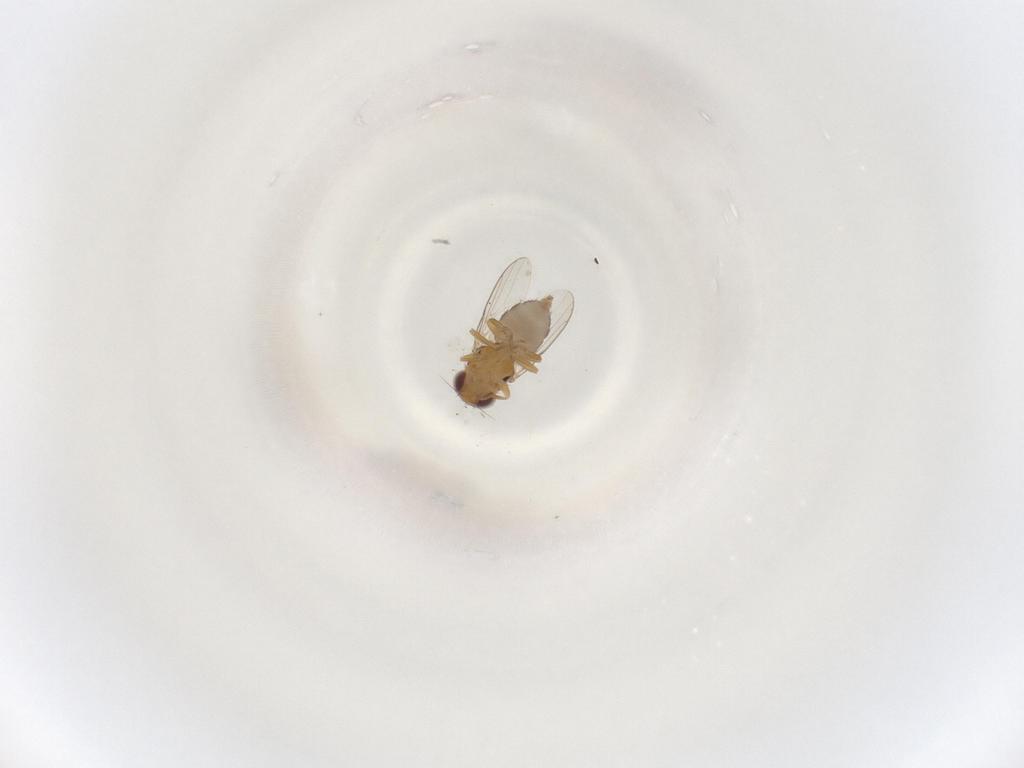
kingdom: Animalia
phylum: Arthropoda
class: Insecta
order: Diptera
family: Chloropidae
